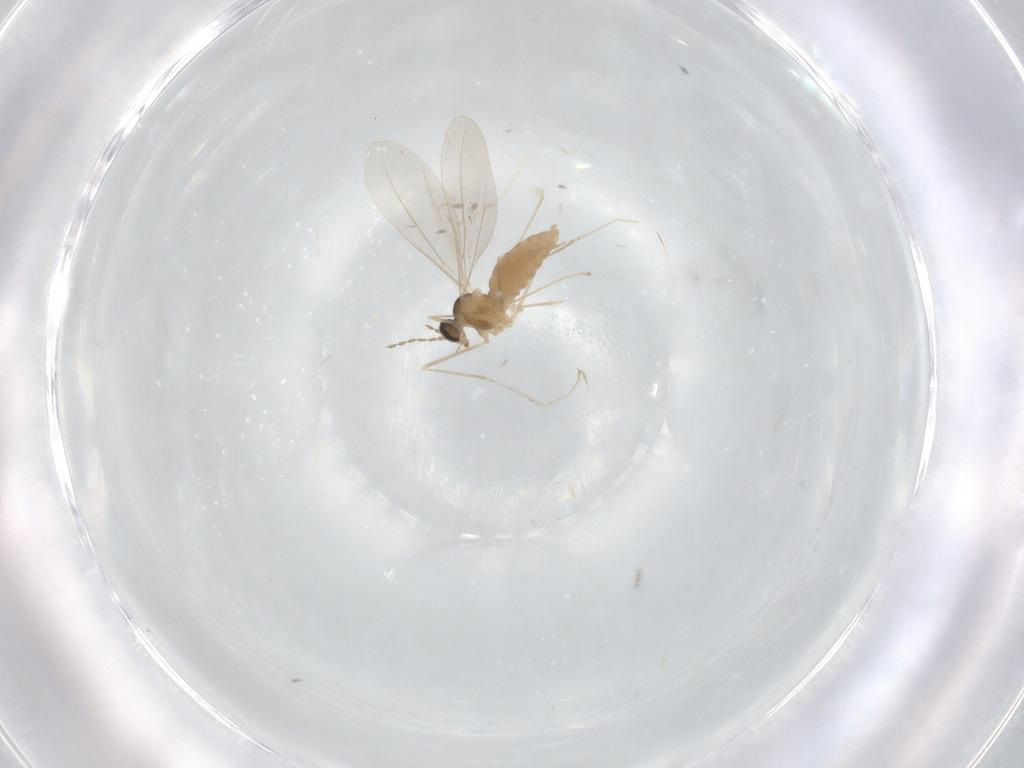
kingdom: Animalia
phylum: Arthropoda
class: Insecta
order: Diptera
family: Cecidomyiidae
